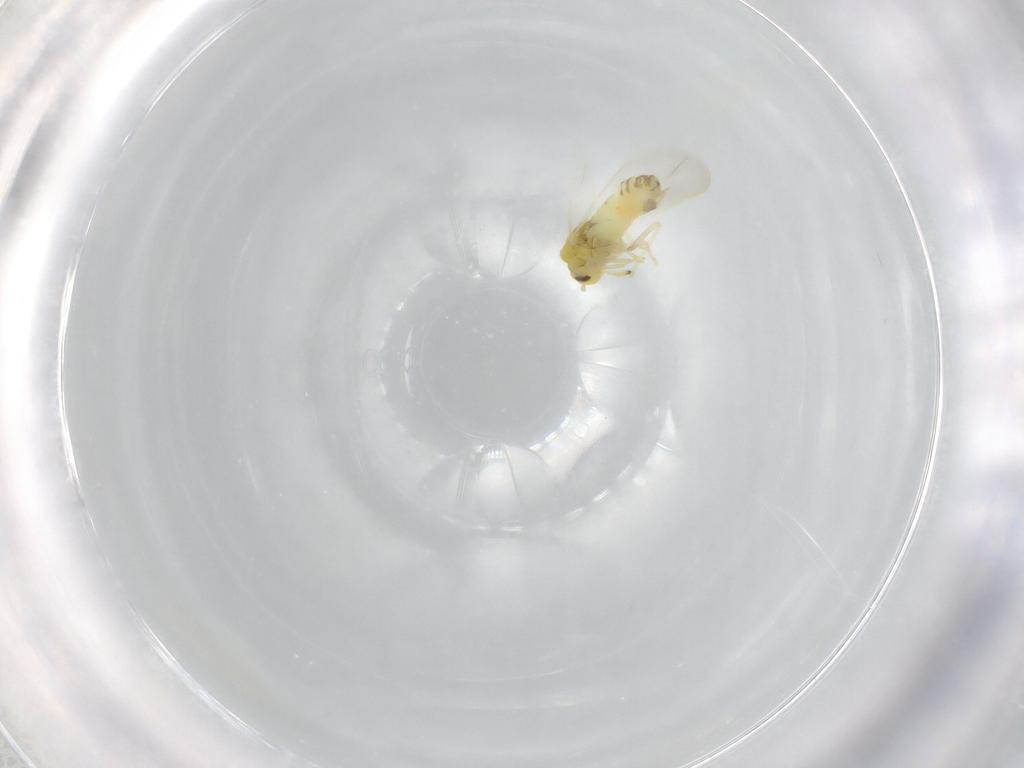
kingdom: Animalia
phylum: Arthropoda
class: Insecta
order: Hemiptera
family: Aleyrodidae
